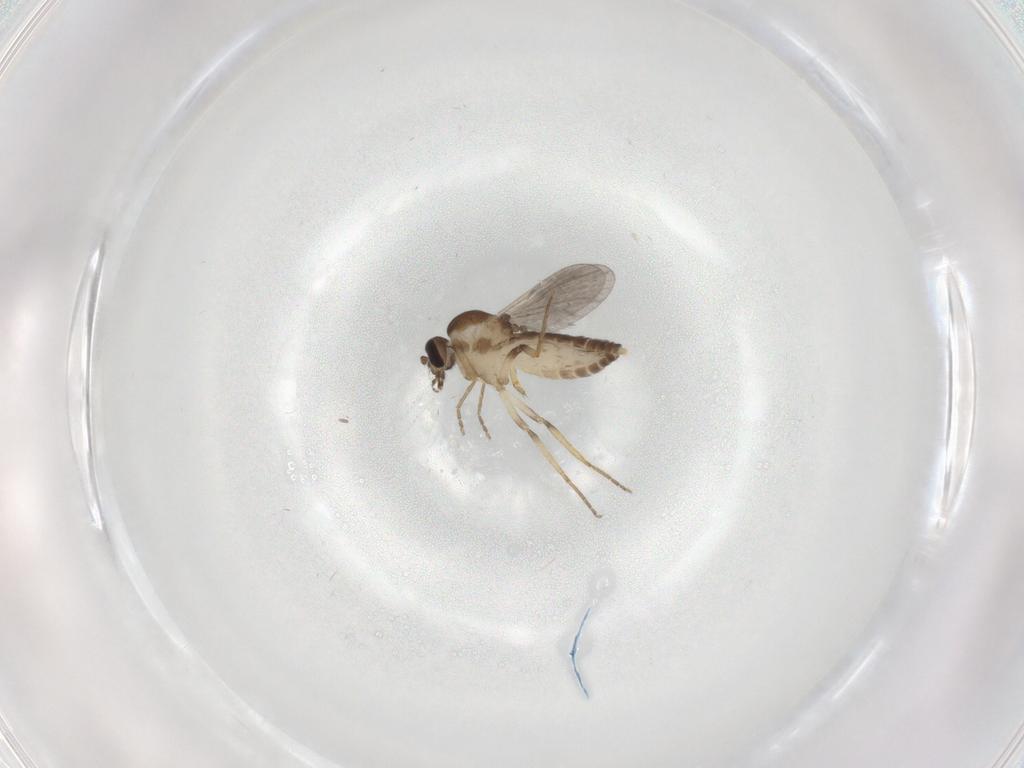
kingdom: Animalia
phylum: Arthropoda
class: Insecta
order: Diptera
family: Ceratopogonidae
